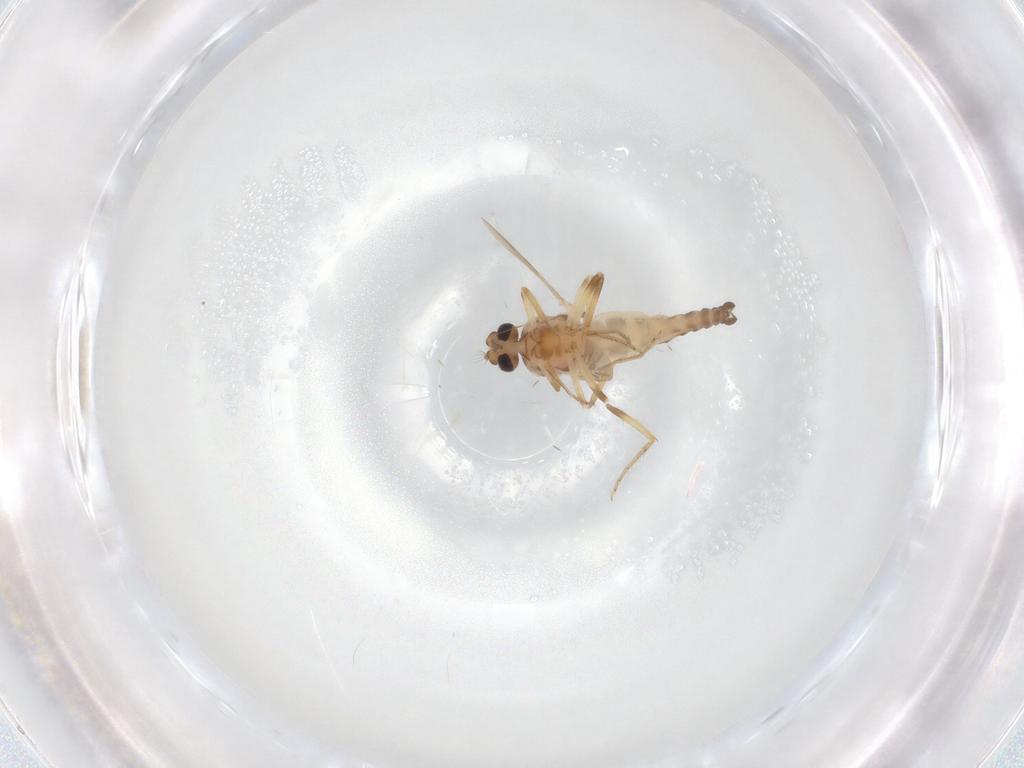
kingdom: Animalia
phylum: Arthropoda
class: Insecta
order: Diptera
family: Ceratopogonidae
